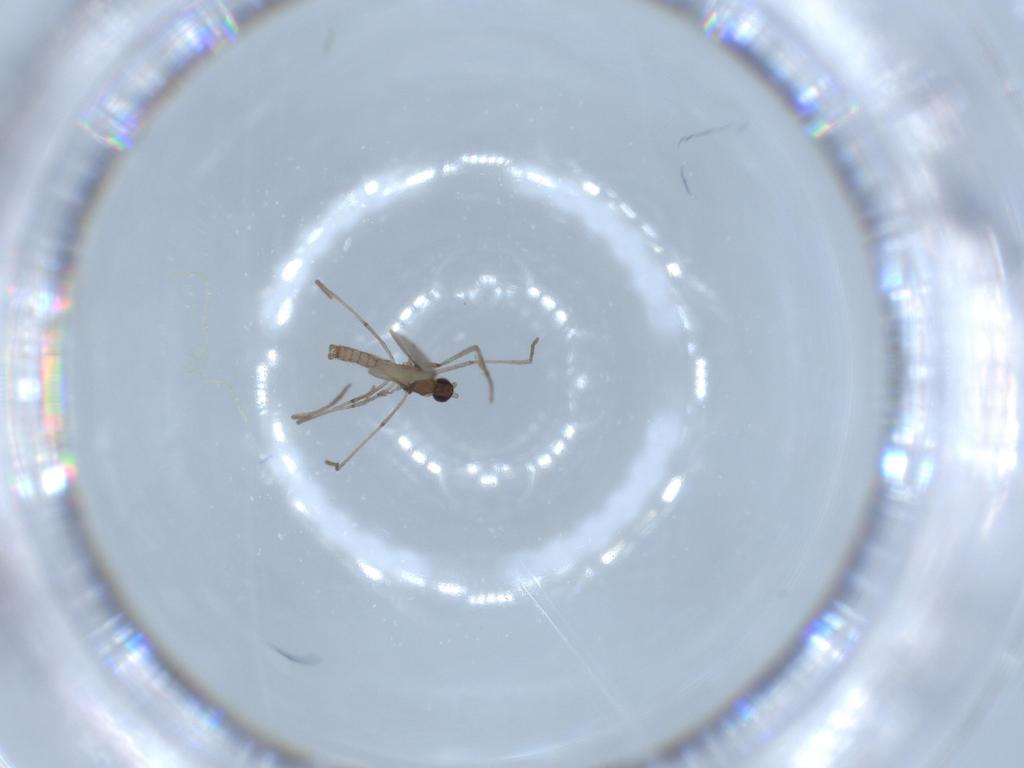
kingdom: Animalia
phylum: Arthropoda
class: Insecta
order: Diptera
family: Cecidomyiidae
